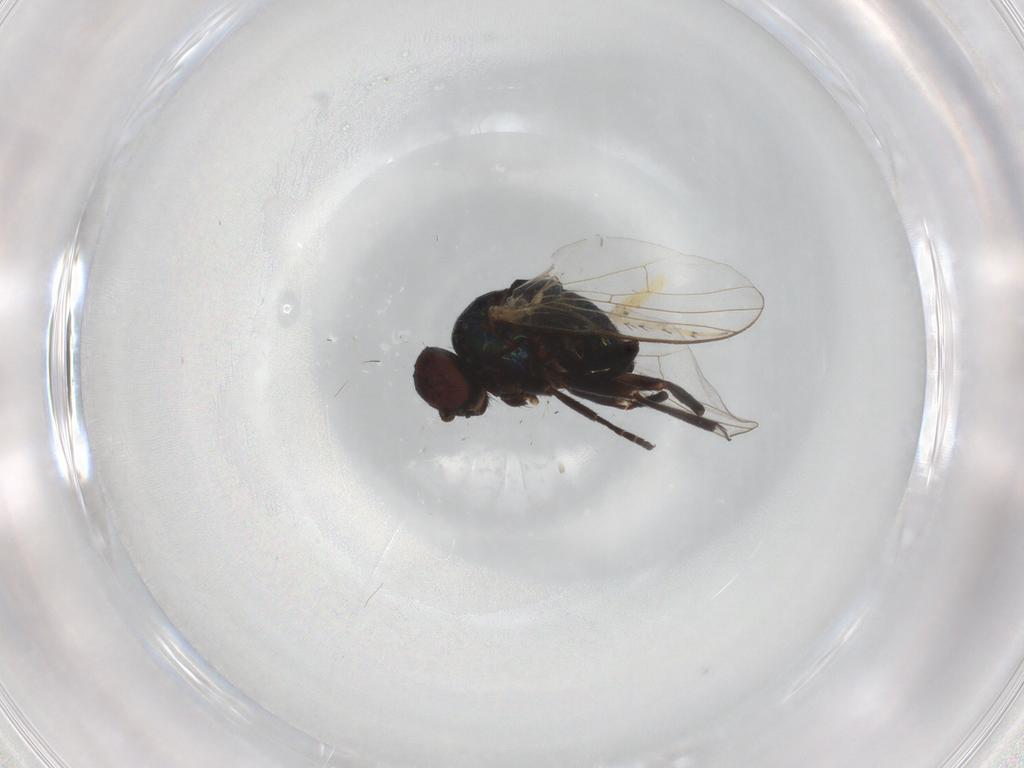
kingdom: Animalia
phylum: Arthropoda
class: Insecta
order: Diptera
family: Agromyzidae
